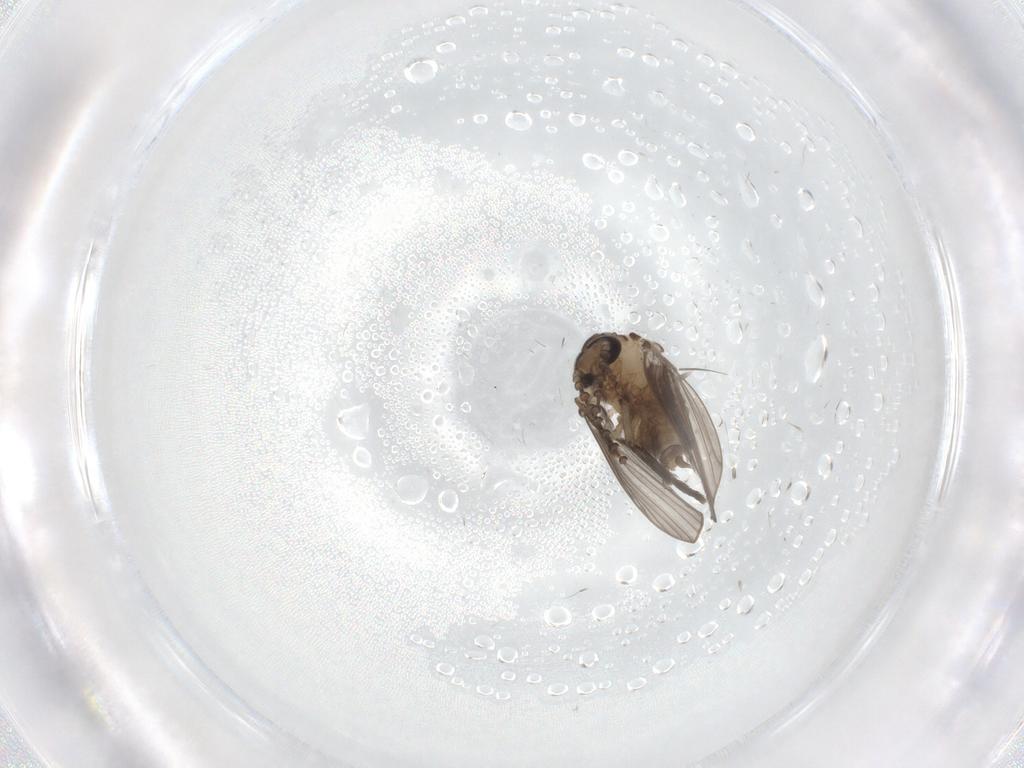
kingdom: Animalia
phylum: Arthropoda
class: Insecta
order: Diptera
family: Psychodidae
